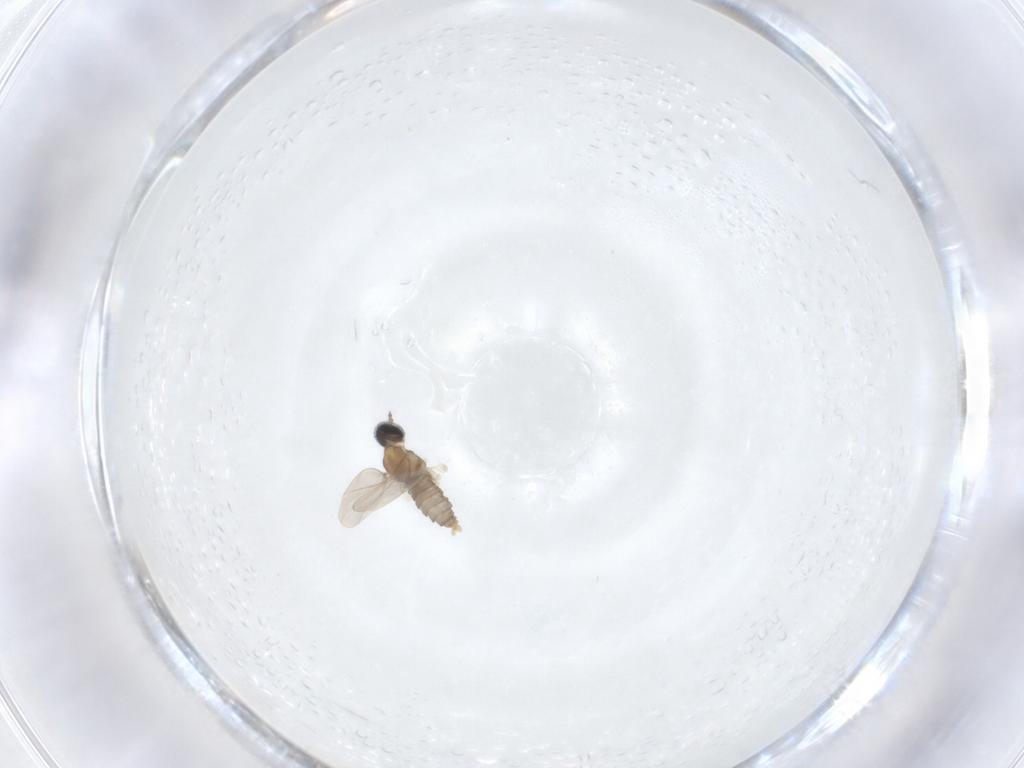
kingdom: Animalia
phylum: Arthropoda
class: Insecta
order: Diptera
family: Cecidomyiidae
